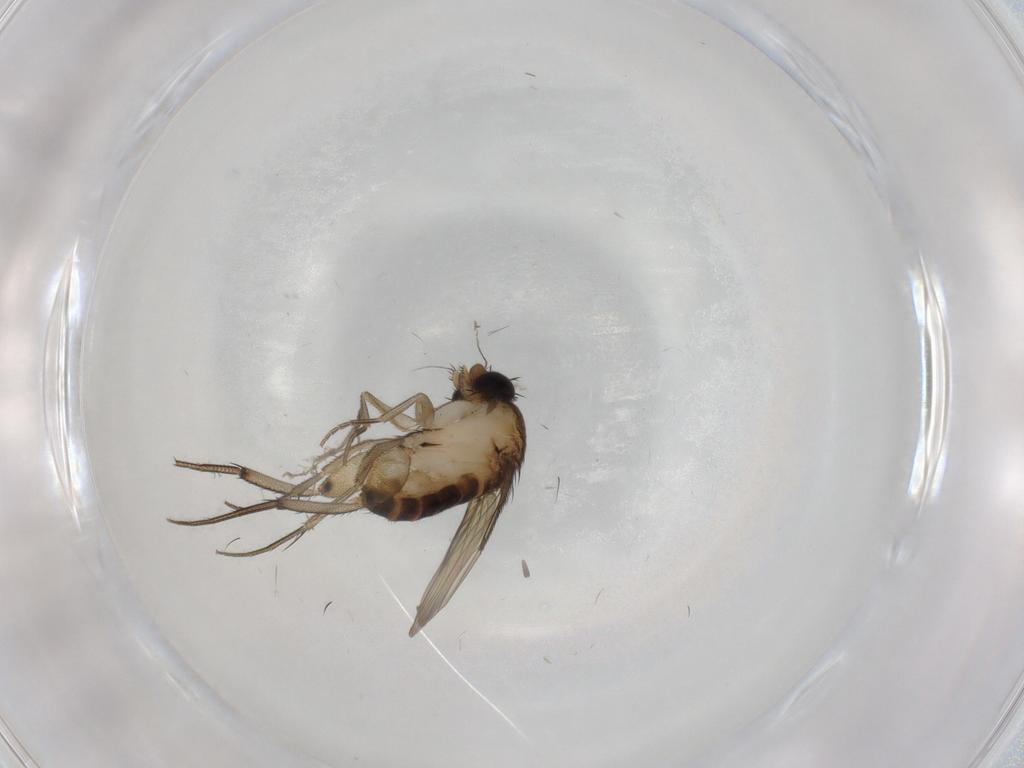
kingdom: Animalia
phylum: Arthropoda
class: Insecta
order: Diptera
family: Phoridae
